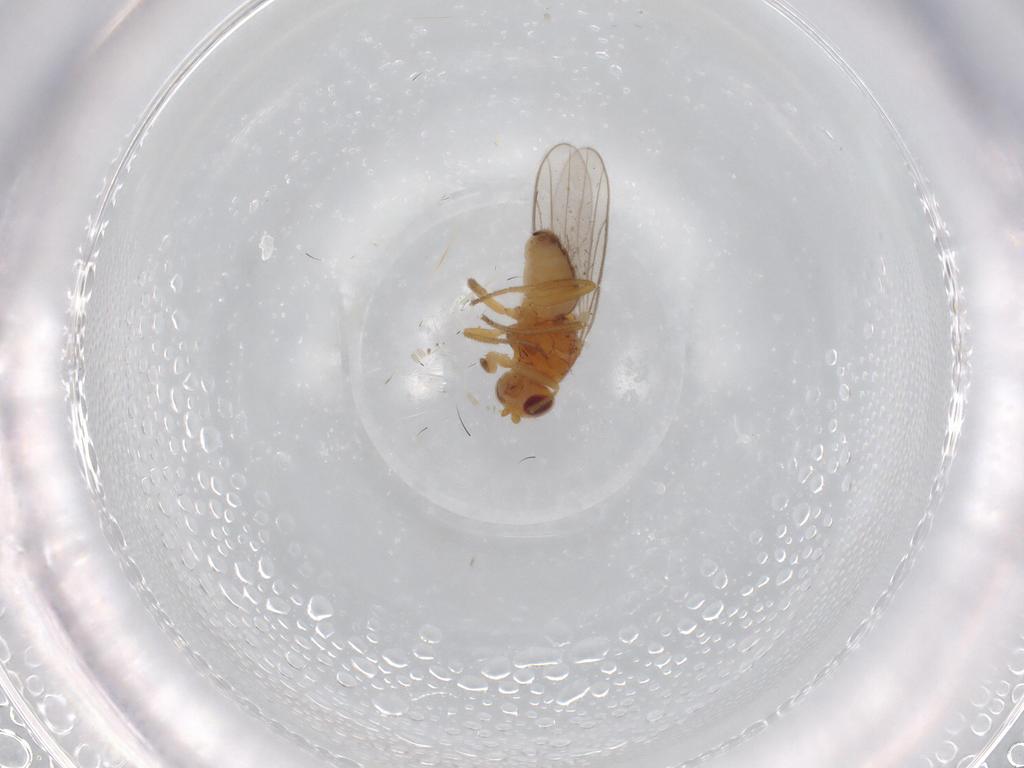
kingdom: Animalia
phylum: Arthropoda
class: Insecta
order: Diptera
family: Chloropidae
